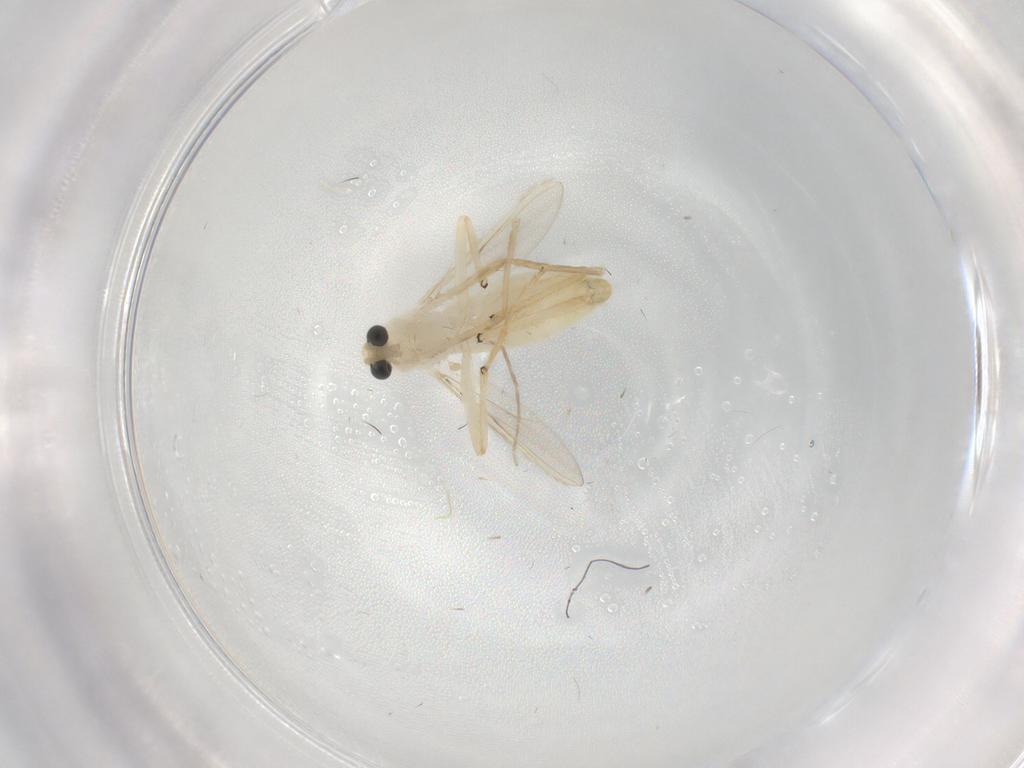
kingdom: Animalia
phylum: Arthropoda
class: Insecta
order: Diptera
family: Chironomidae
